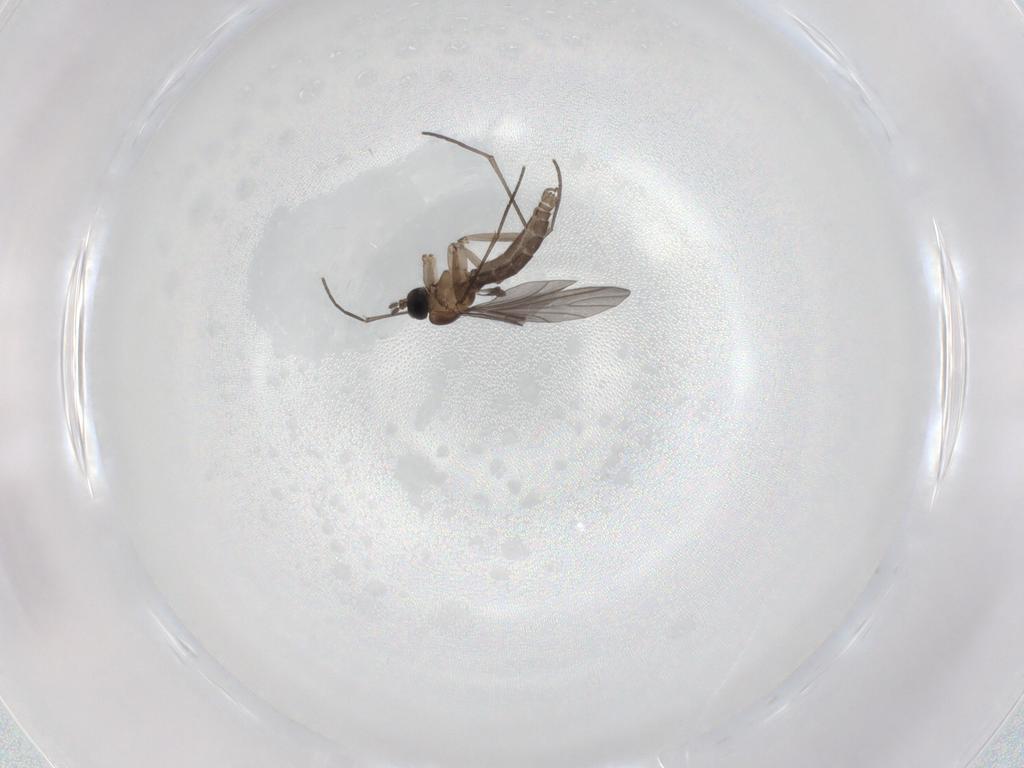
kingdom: Animalia
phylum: Arthropoda
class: Insecta
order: Diptera
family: Sciaridae
